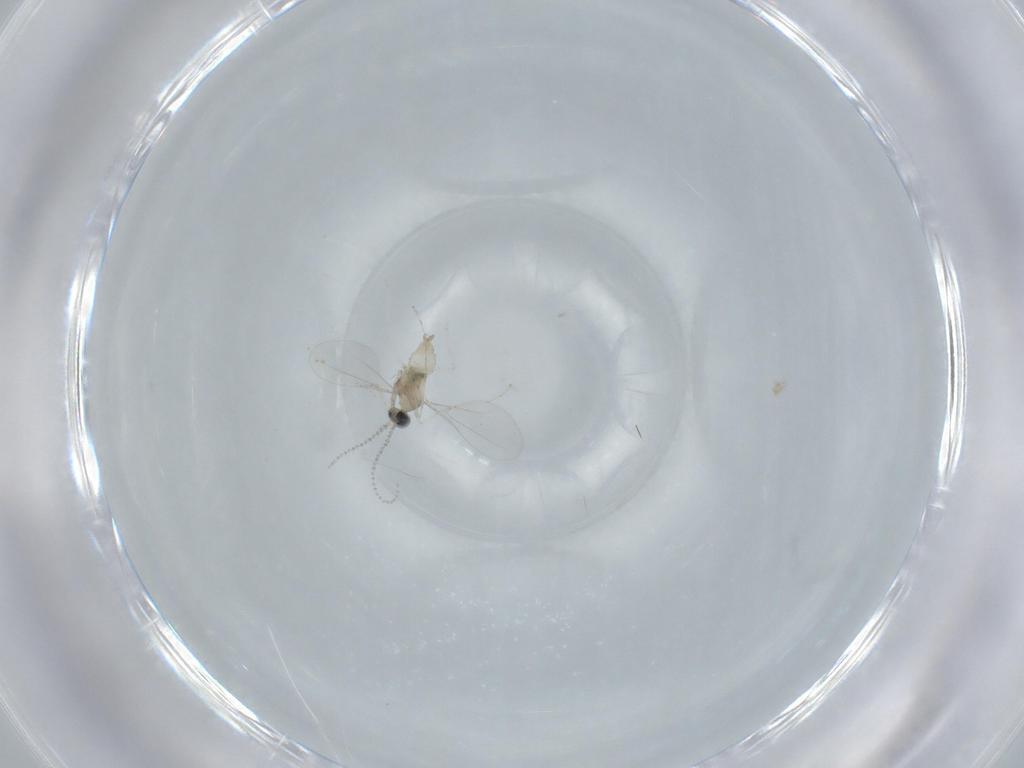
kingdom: Animalia
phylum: Arthropoda
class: Insecta
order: Diptera
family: Cecidomyiidae
